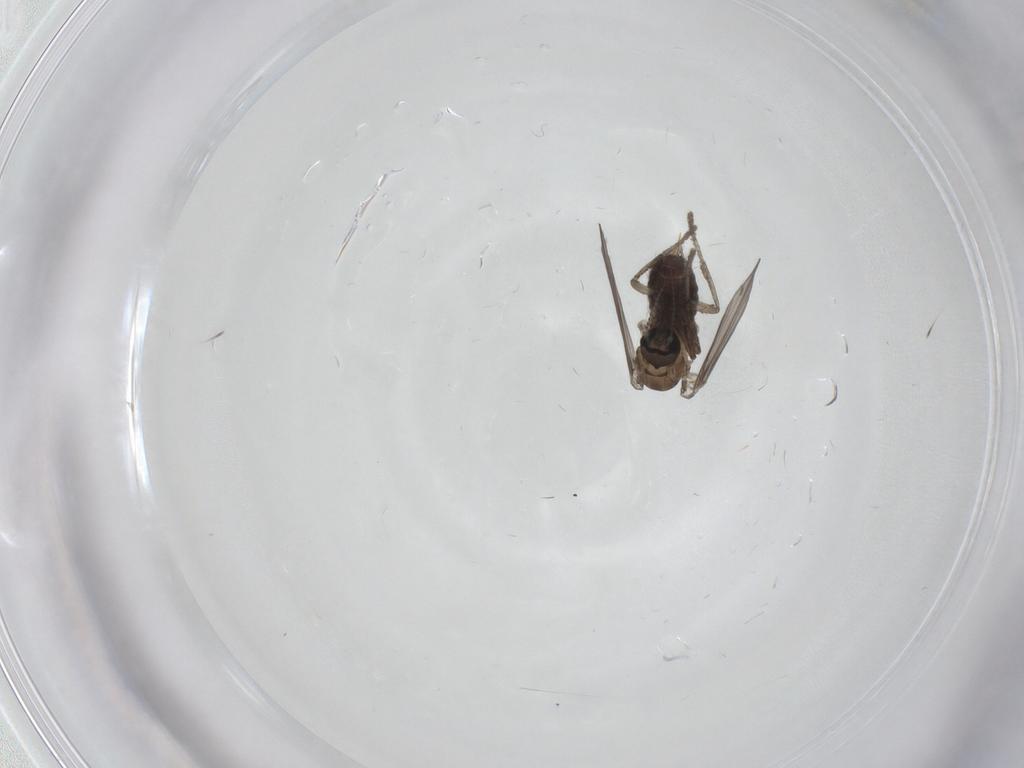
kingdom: Animalia
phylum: Arthropoda
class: Insecta
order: Diptera
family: Psychodidae
